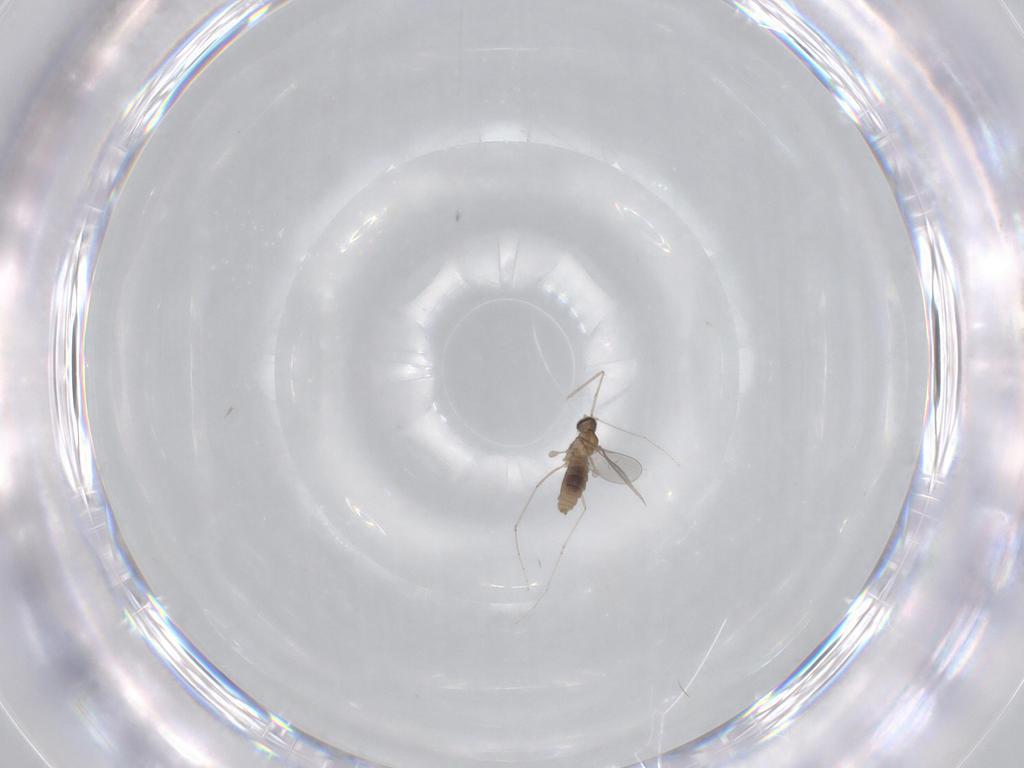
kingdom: Animalia
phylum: Arthropoda
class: Insecta
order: Diptera
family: Cecidomyiidae
